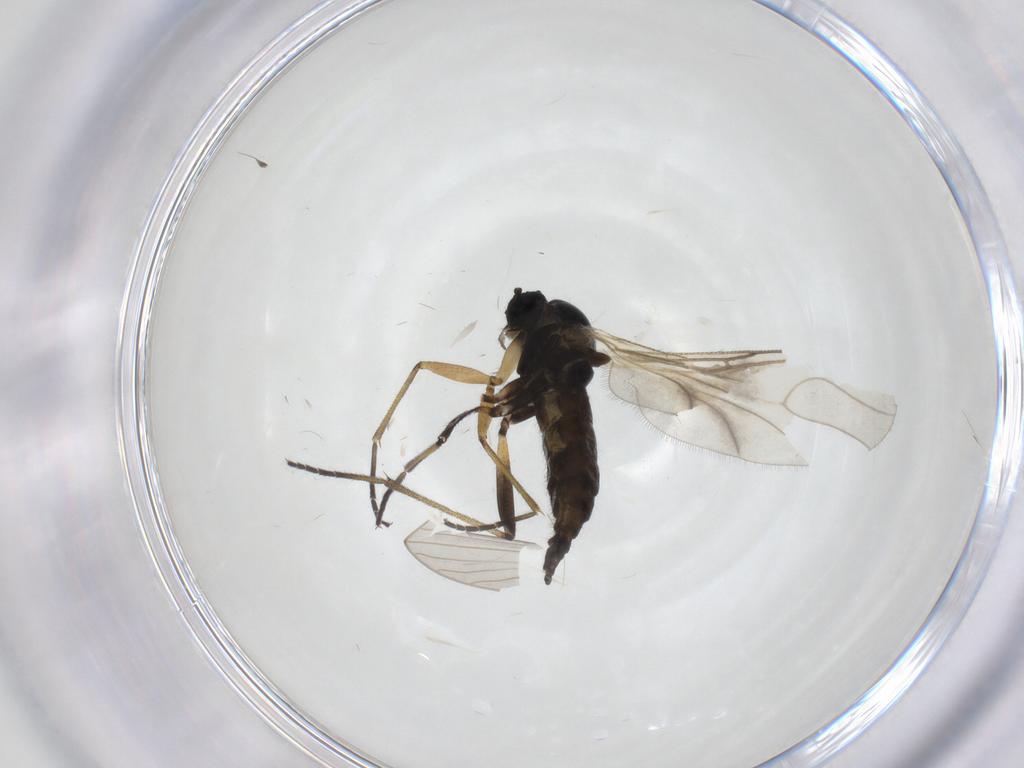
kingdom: Animalia
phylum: Arthropoda
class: Insecta
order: Diptera
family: Sciaridae
